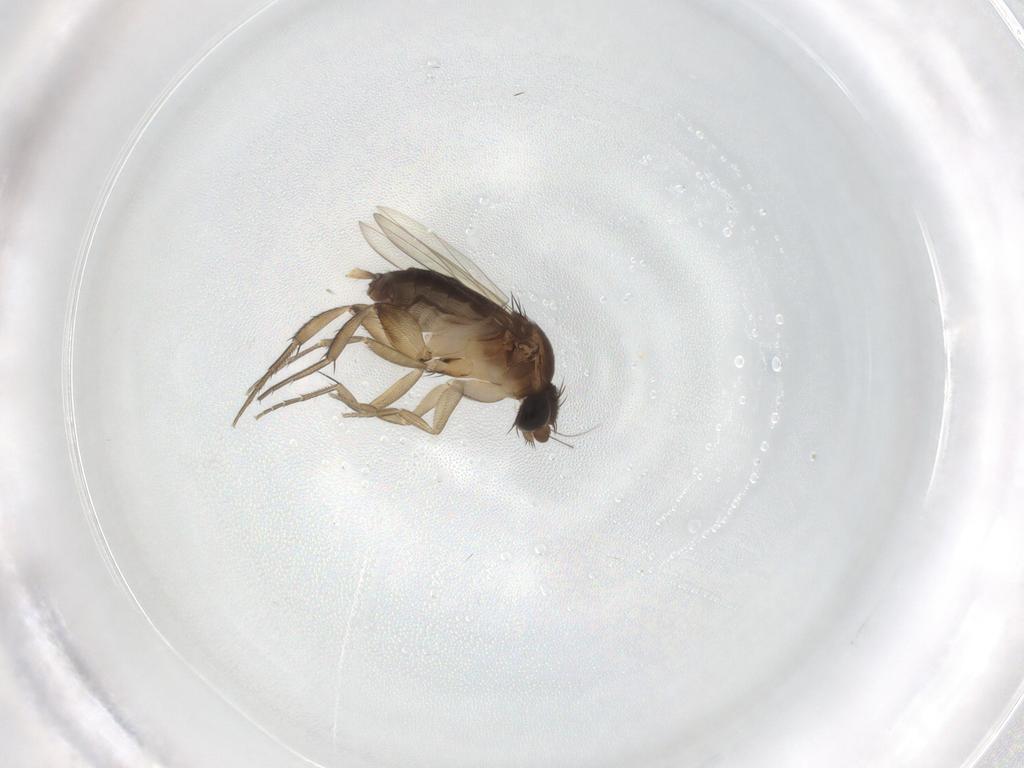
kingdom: Animalia
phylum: Arthropoda
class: Insecta
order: Diptera
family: Phoridae
